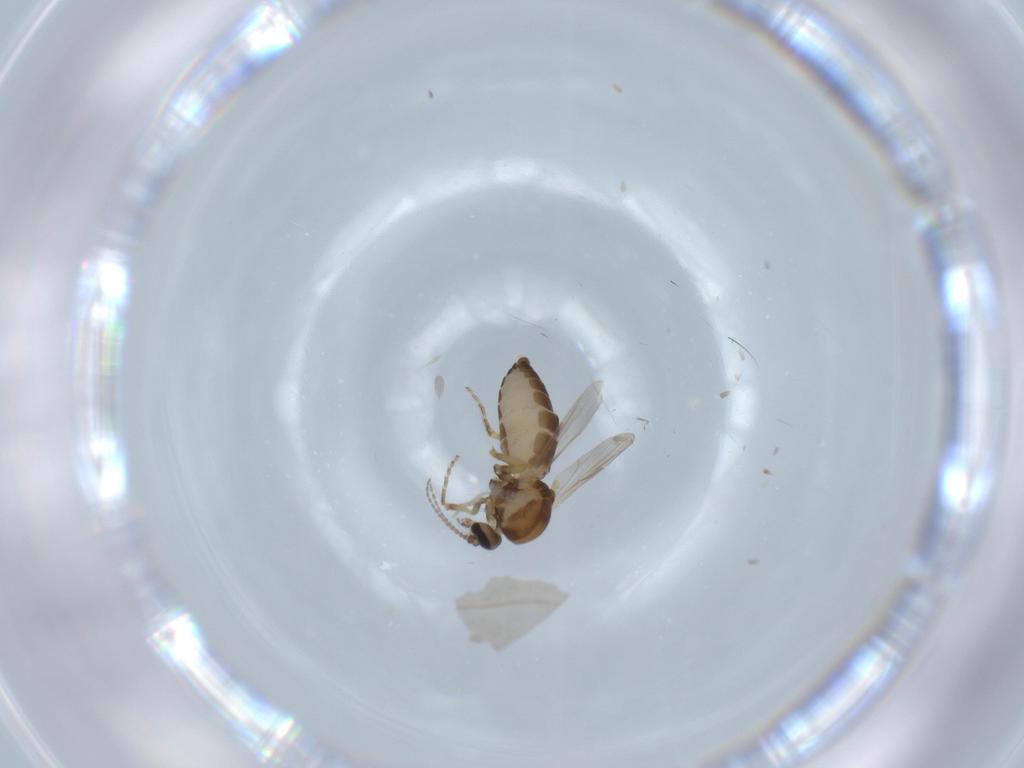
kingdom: Animalia
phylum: Arthropoda
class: Insecta
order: Diptera
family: Ceratopogonidae
